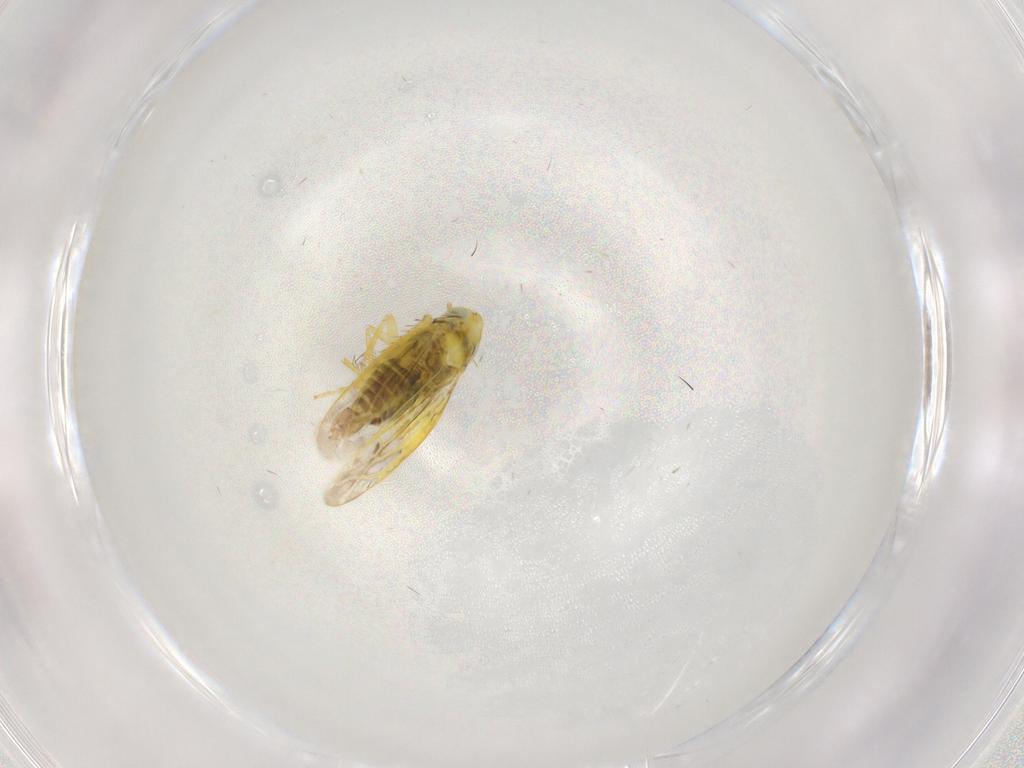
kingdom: Animalia
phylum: Arthropoda
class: Insecta
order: Hemiptera
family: Cicadellidae
